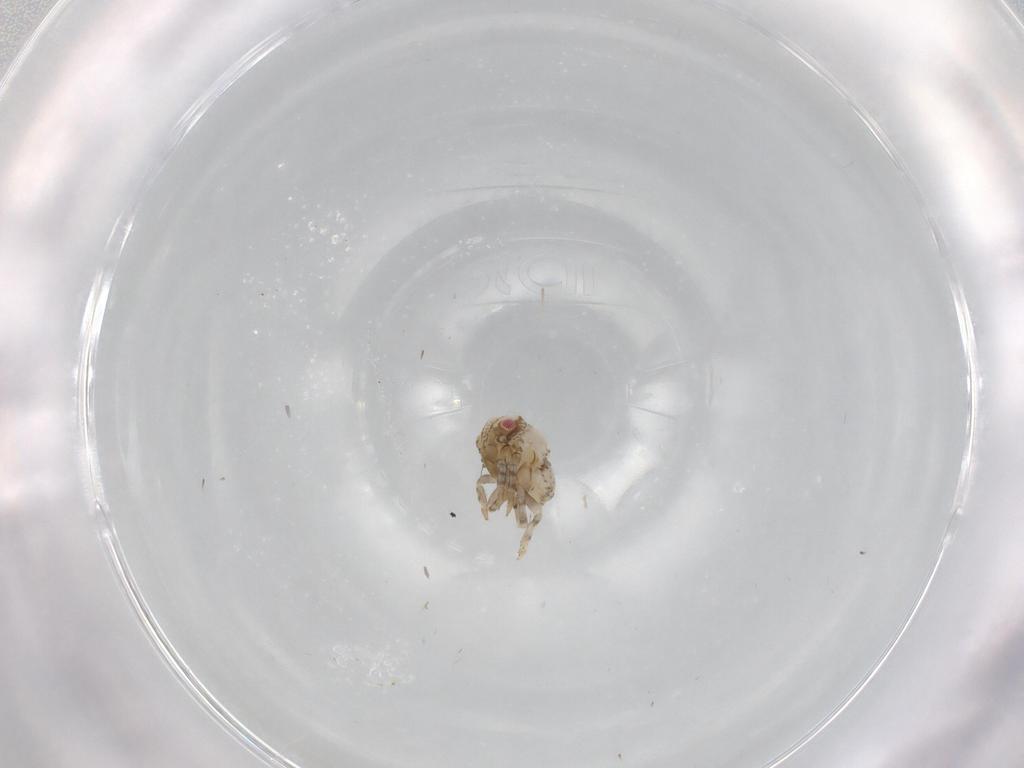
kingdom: Animalia
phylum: Arthropoda
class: Insecta
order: Hemiptera
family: Acanaloniidae
